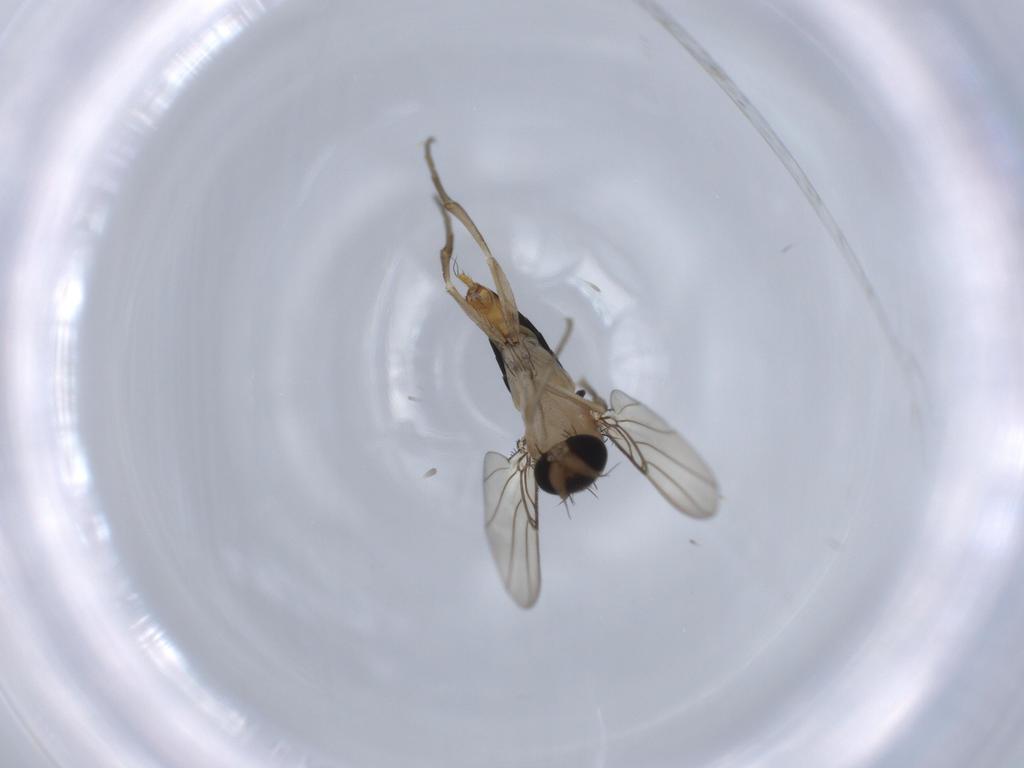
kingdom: Animalia
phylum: Arthropoda
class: Insecta
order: Diptera
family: Phoridae
